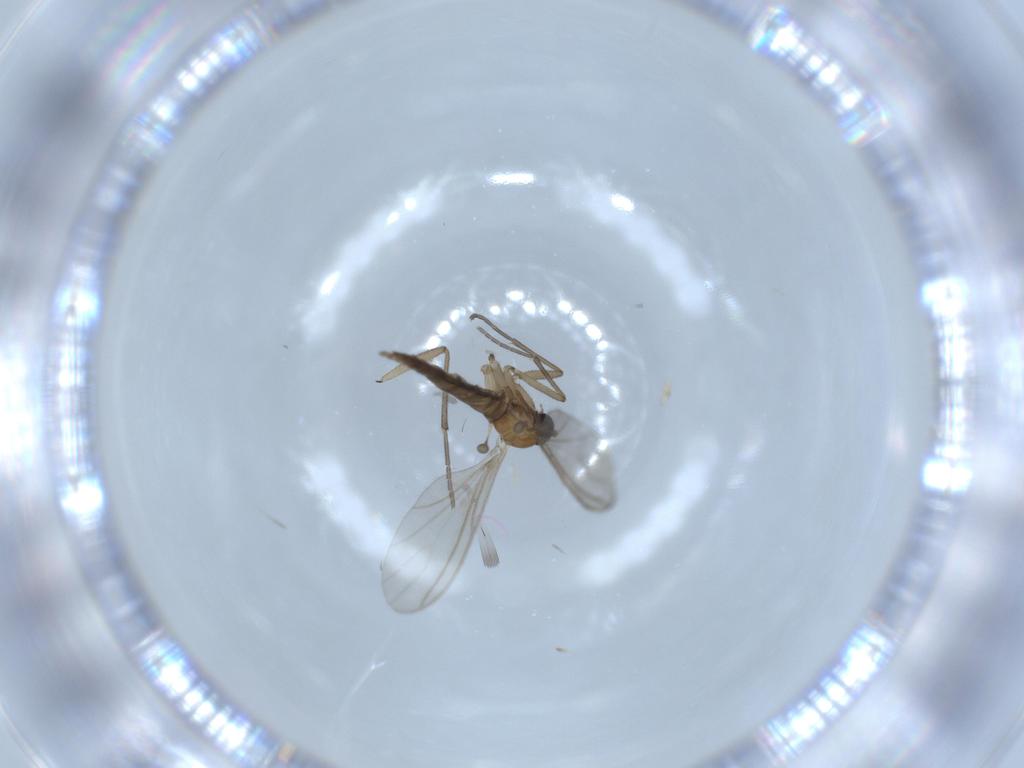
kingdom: Animalia
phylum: Arthropoda
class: Insecta
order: Diptera
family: Sciaridae
